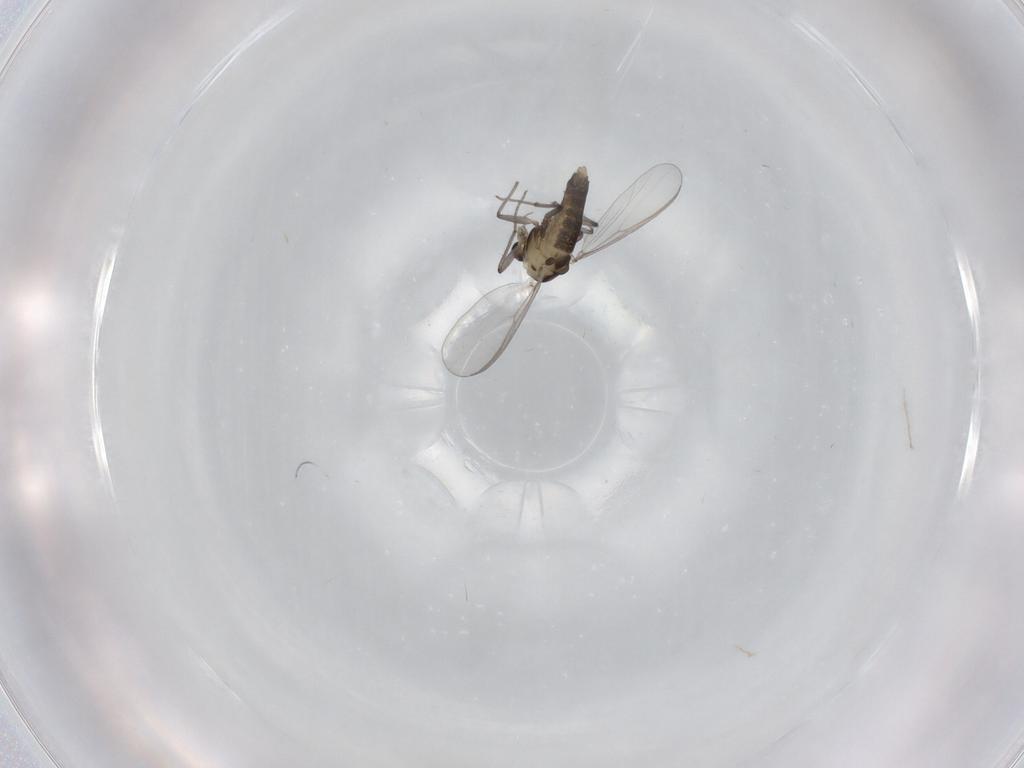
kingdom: Animalia
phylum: Arthropoda
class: Insecta
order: Diptera
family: Chironomidae
